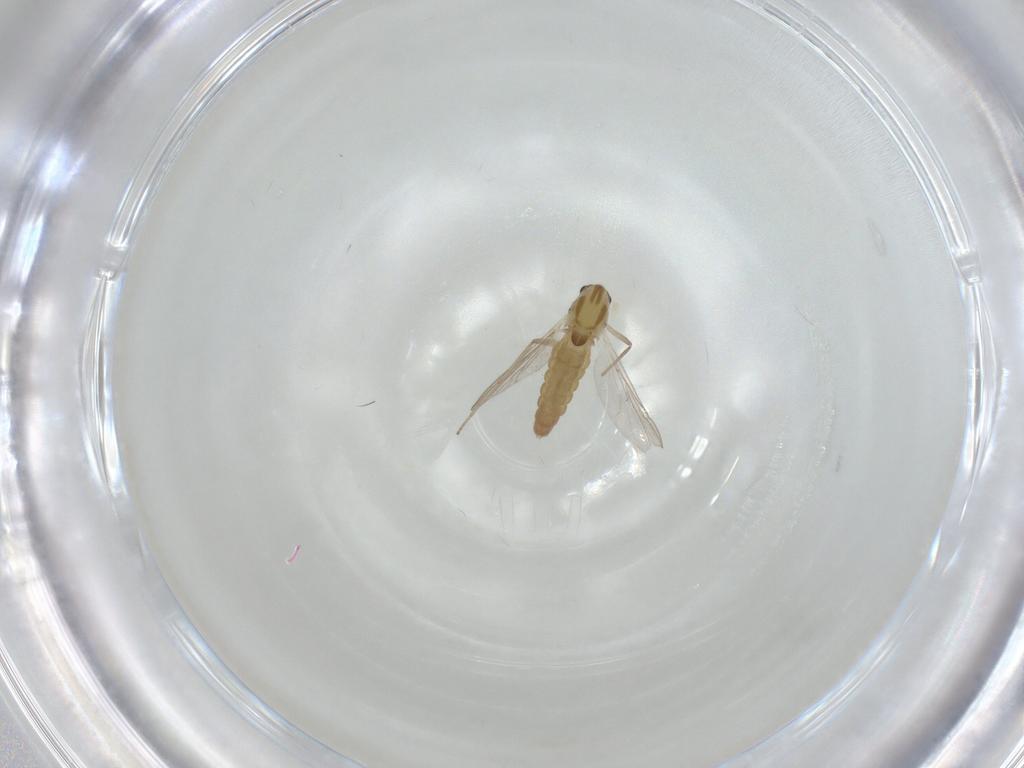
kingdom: Animalia
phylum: Arthropoda
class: Insecta
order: Diptera
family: Chironomidae
